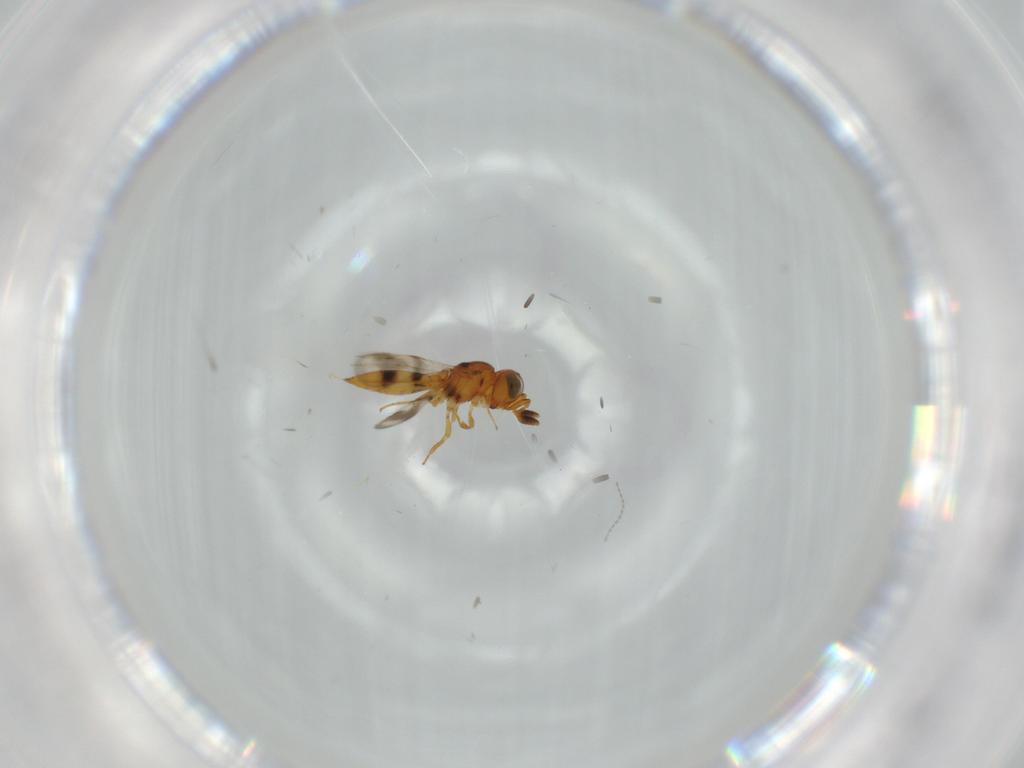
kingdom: Animalia
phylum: Arthropoda
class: Insecta
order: Hymenoptera
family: Scelionidae
